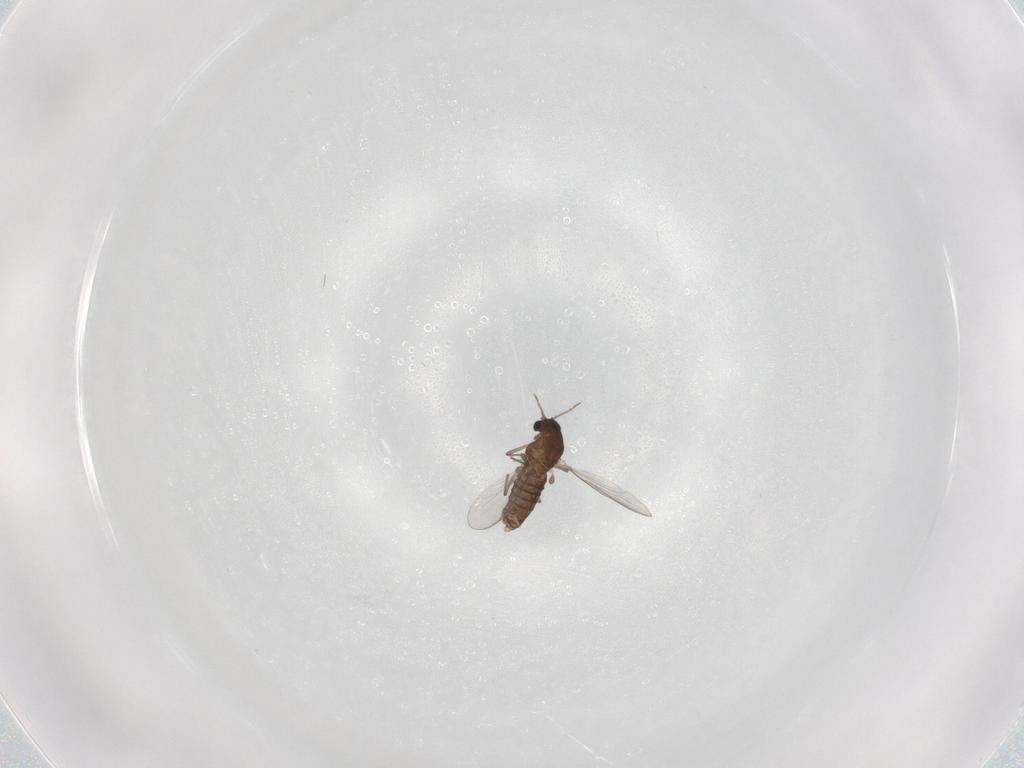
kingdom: Animalia
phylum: Arthropoda
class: Insecta
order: Diptera
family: Chironomidae
